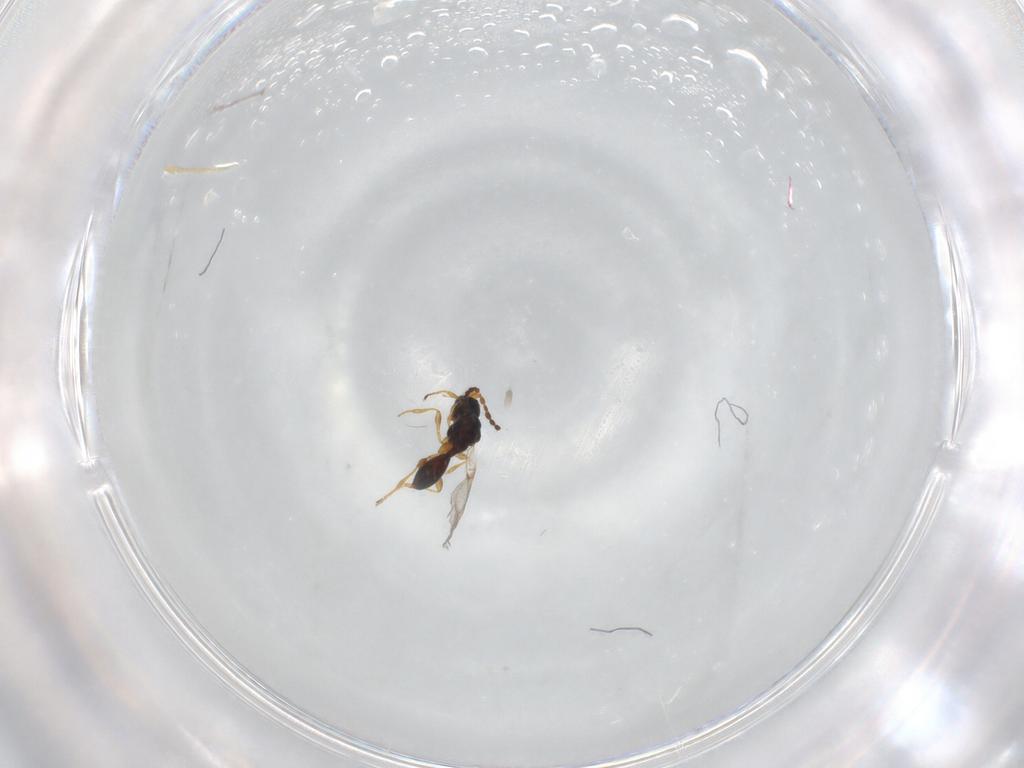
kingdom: Animalia
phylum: Arthropoda
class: Insecta
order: Hymenoptera
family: Diapriidae
